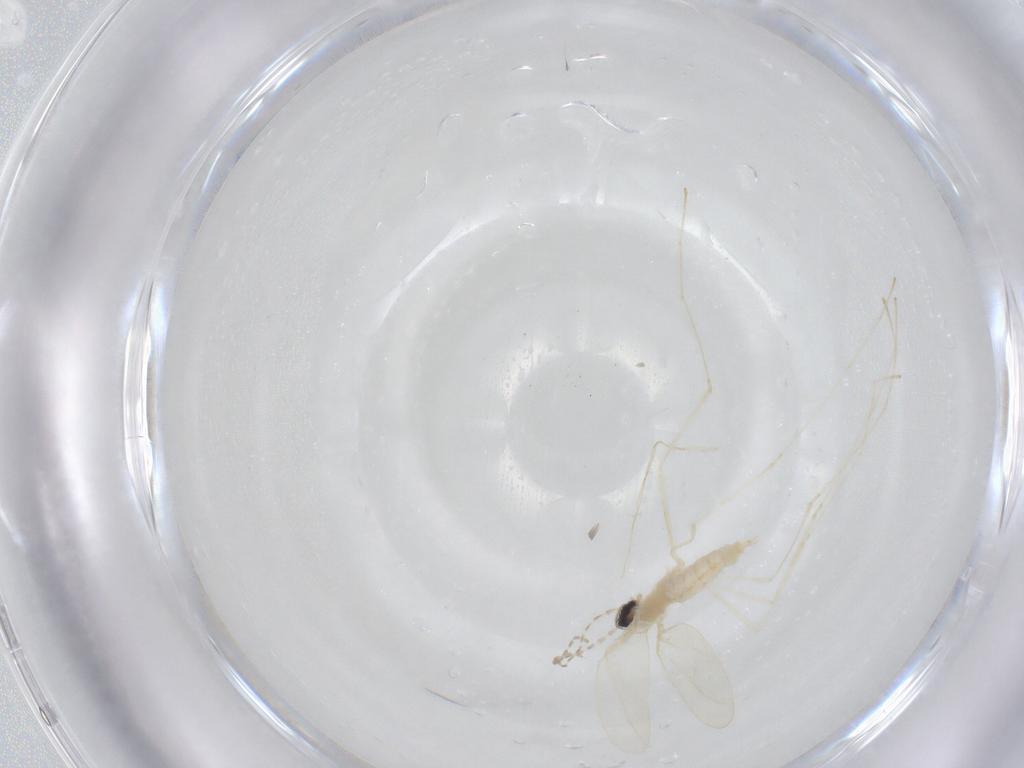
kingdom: Animalia
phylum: Arthropoda
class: Insecta
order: Diptera
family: Cecidomyiidae
